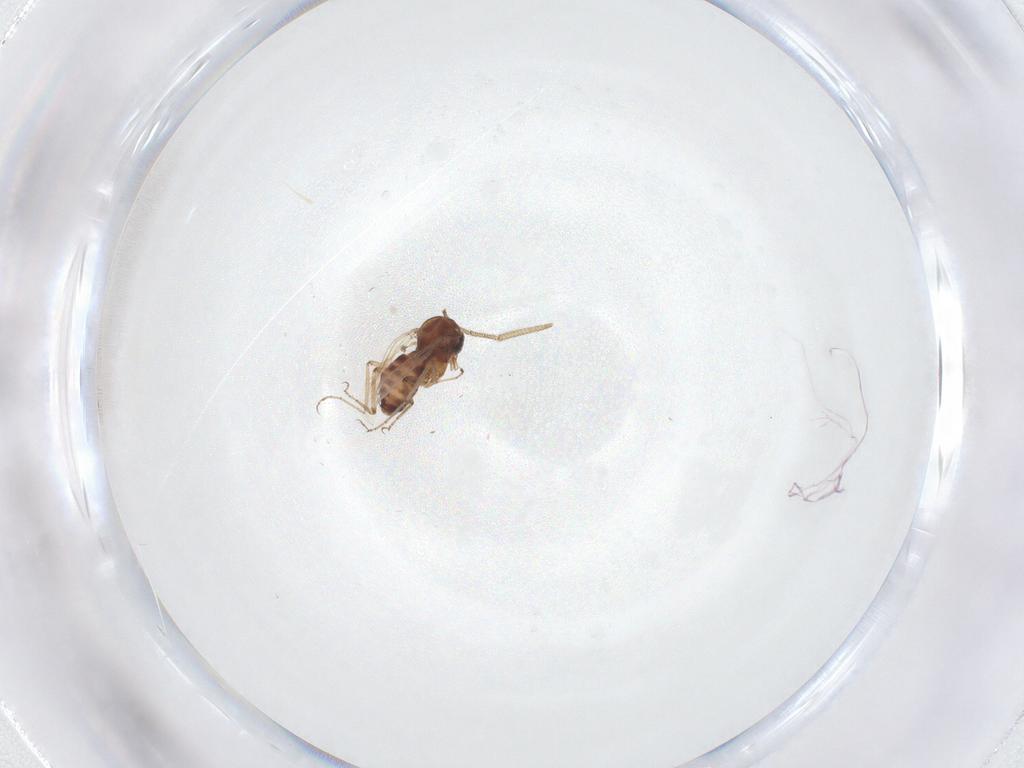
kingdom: Animalia
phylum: Arthropoda
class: Insecta
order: Diptera
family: Ceratopogonidae
